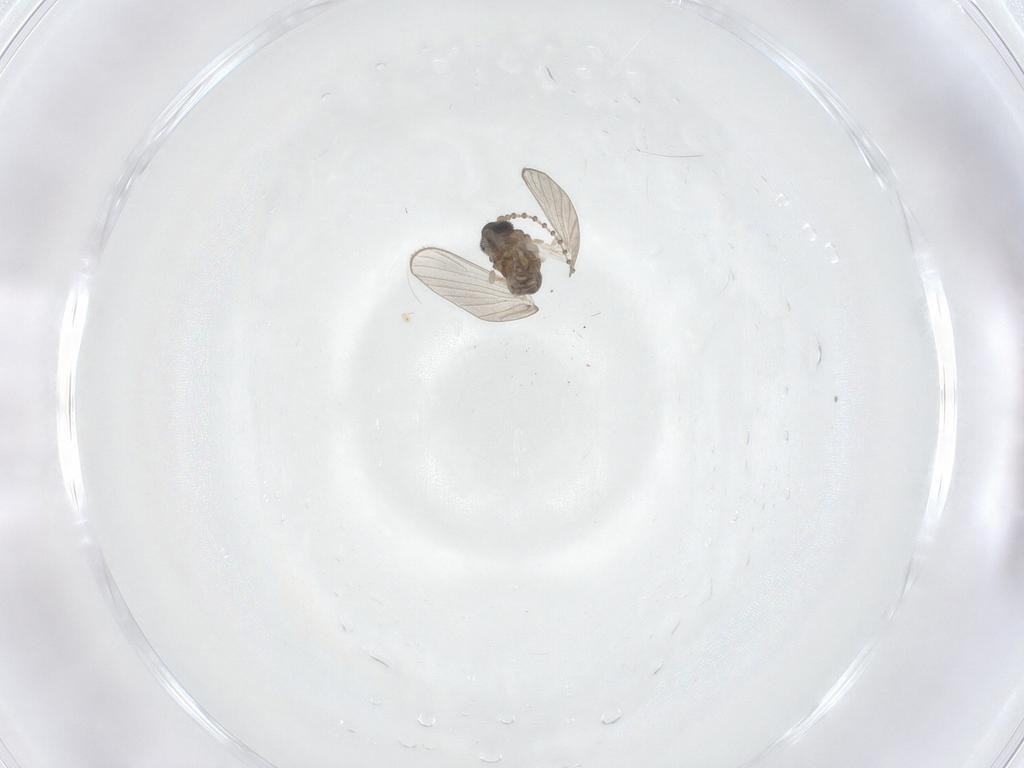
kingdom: Animalia
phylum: Arthropoda
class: Insecta
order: Diptera
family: Psychodidae
